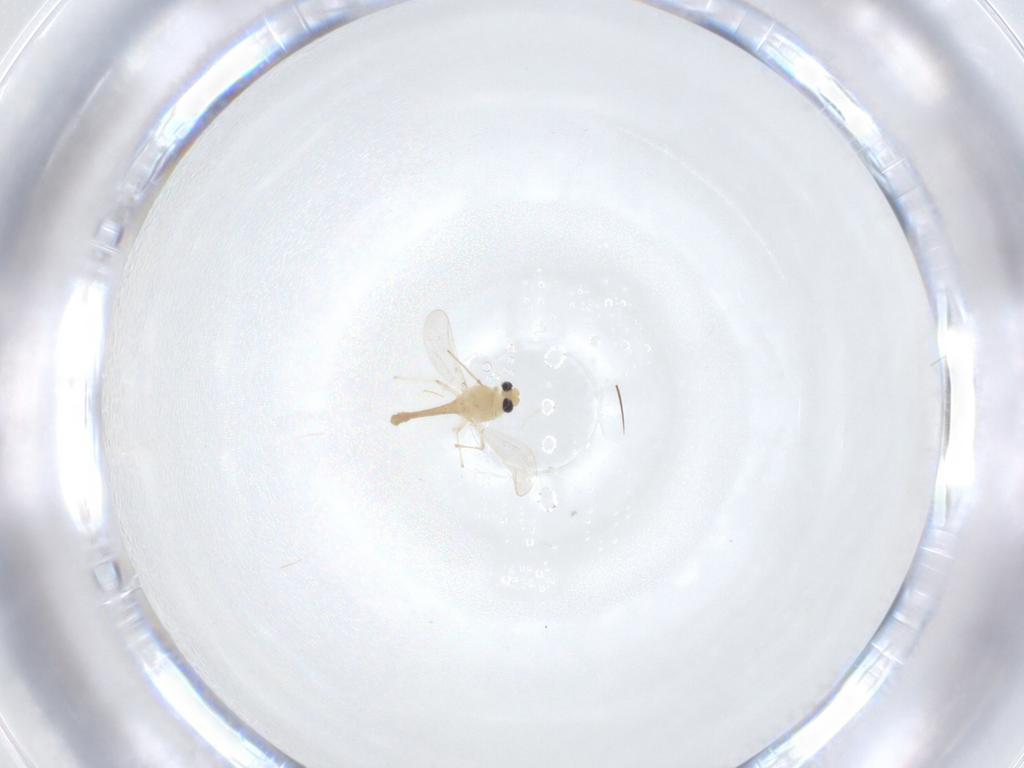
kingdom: Animalia
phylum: Arthropoda
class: Insecta
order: Diptera
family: Chironomidae
